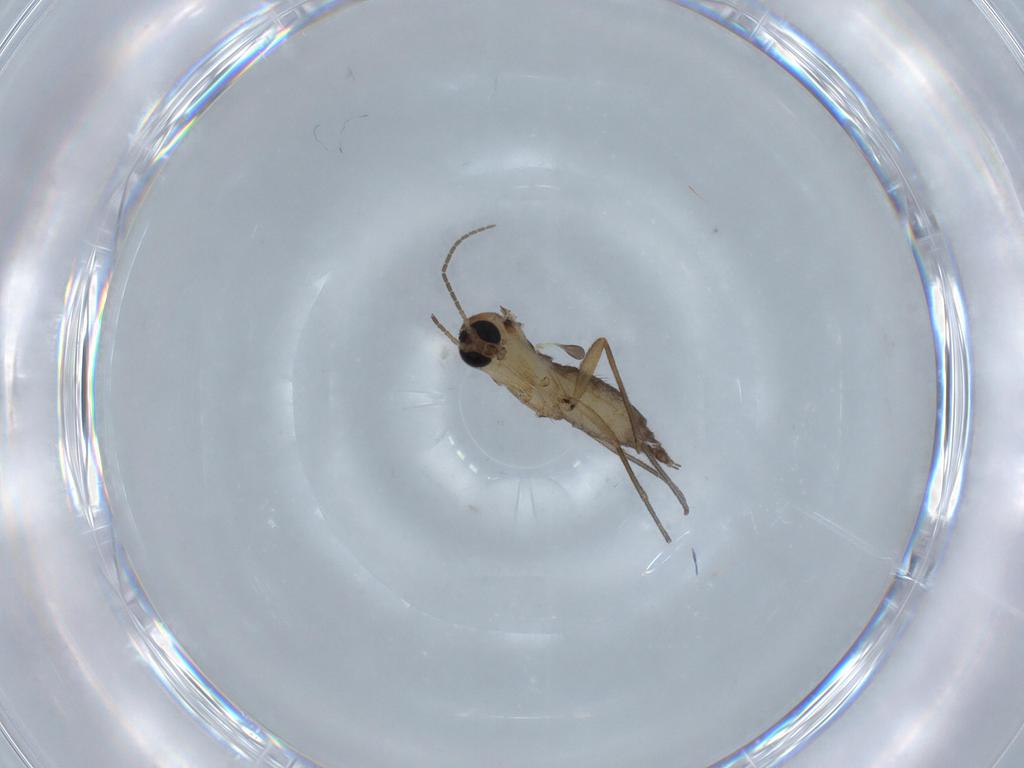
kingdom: Animalia
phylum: Arthropoda
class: Insecta
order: Diptera
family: Sciaridae
